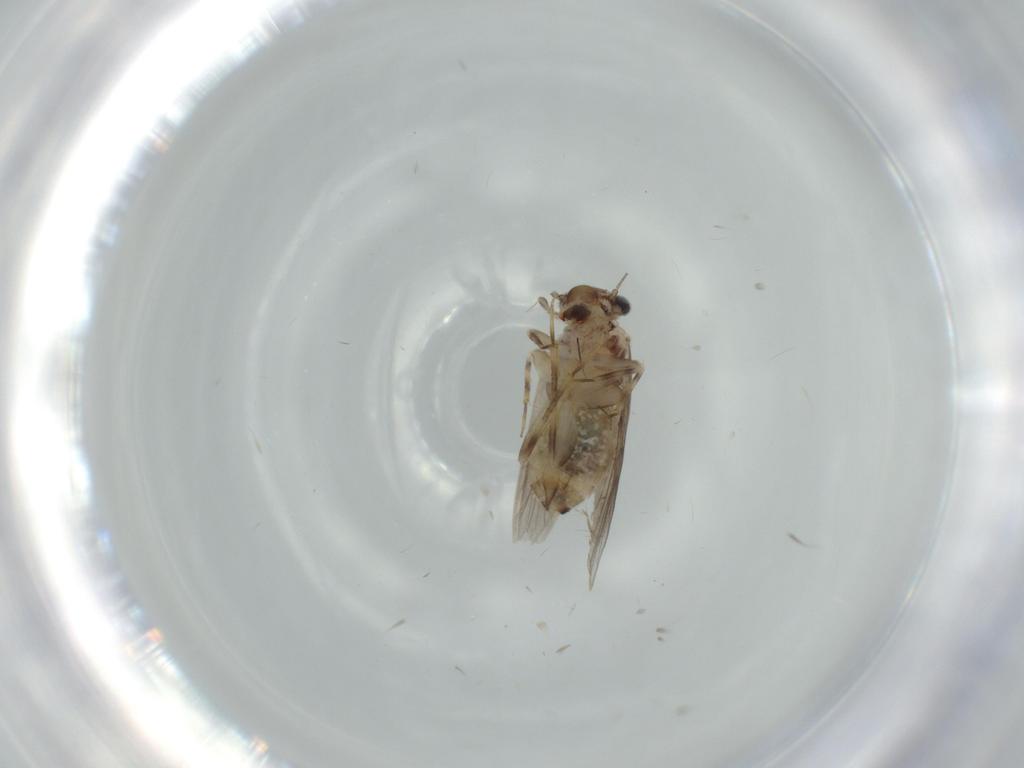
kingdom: Animalia
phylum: Arthropoda
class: Insecta
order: Psocodea
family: Lepidopsocidae
